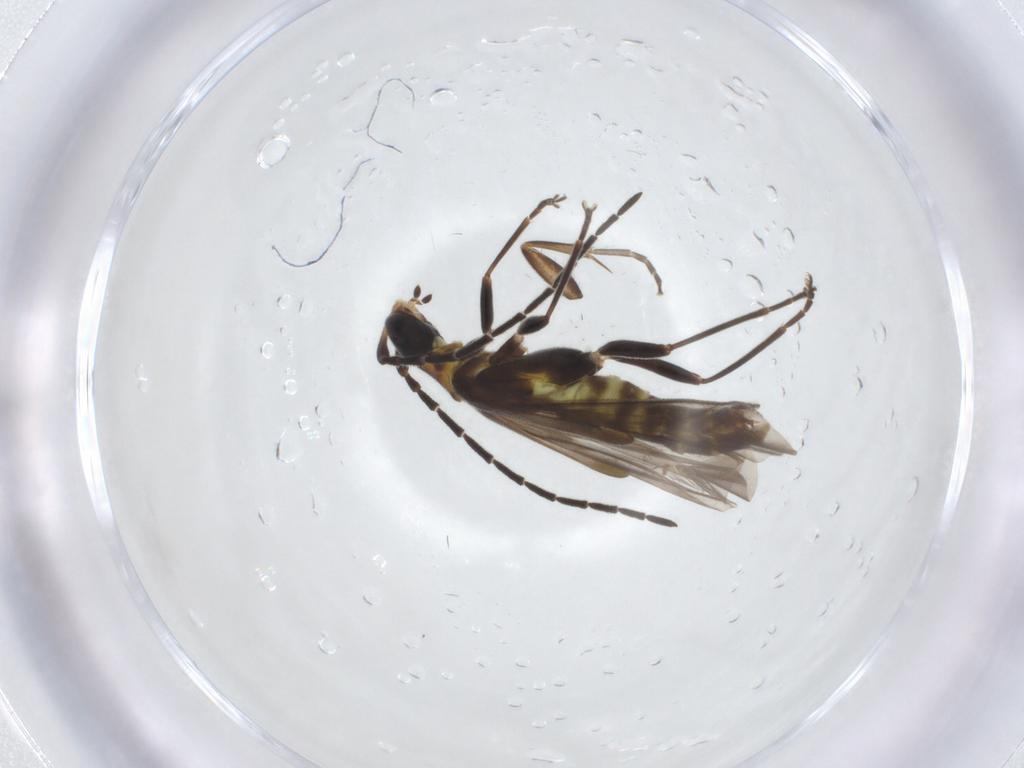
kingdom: Animalia
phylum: Arthropoda
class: Insecta
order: Coleoptera
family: Cantharidae
